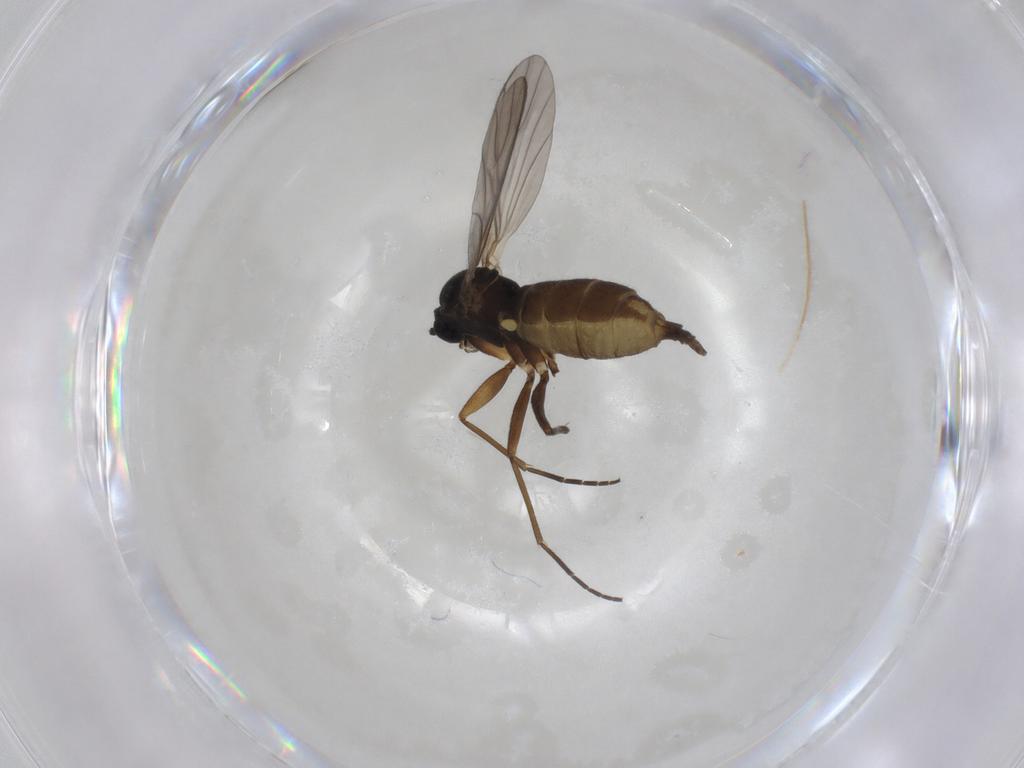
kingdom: Animalia
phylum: Arthropoda
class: Insecta
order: Diptera
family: Sciaridae
